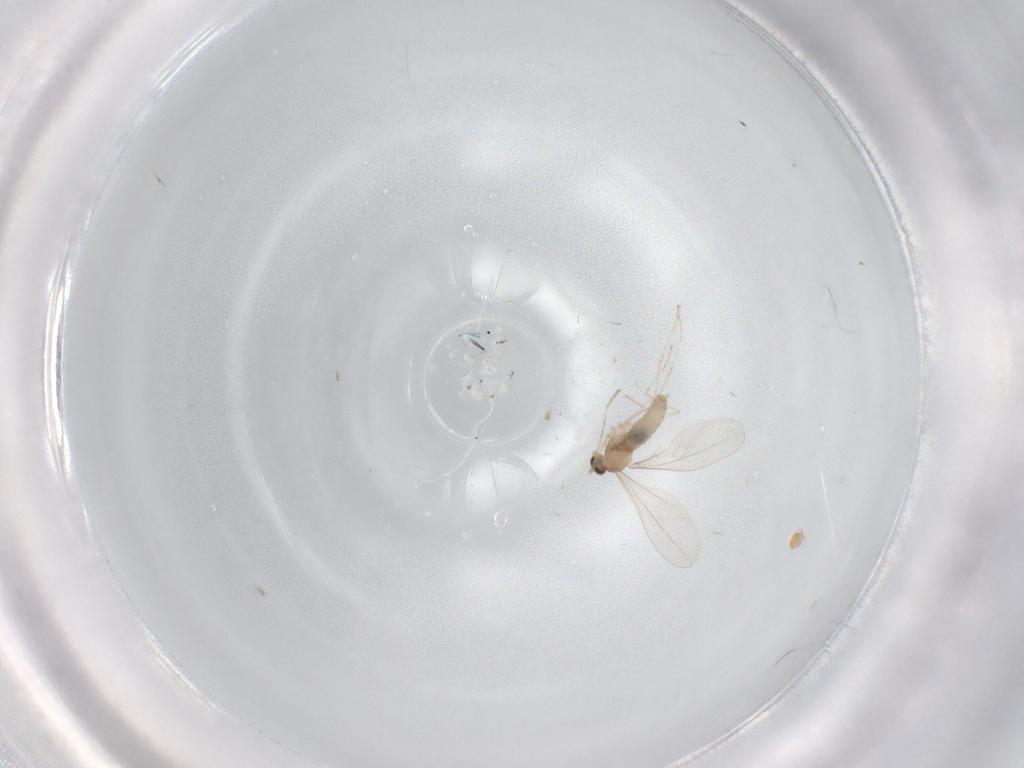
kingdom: Animalia
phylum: Arthropoda
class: Insecta
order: Diptera
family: Cecidomyiidae
